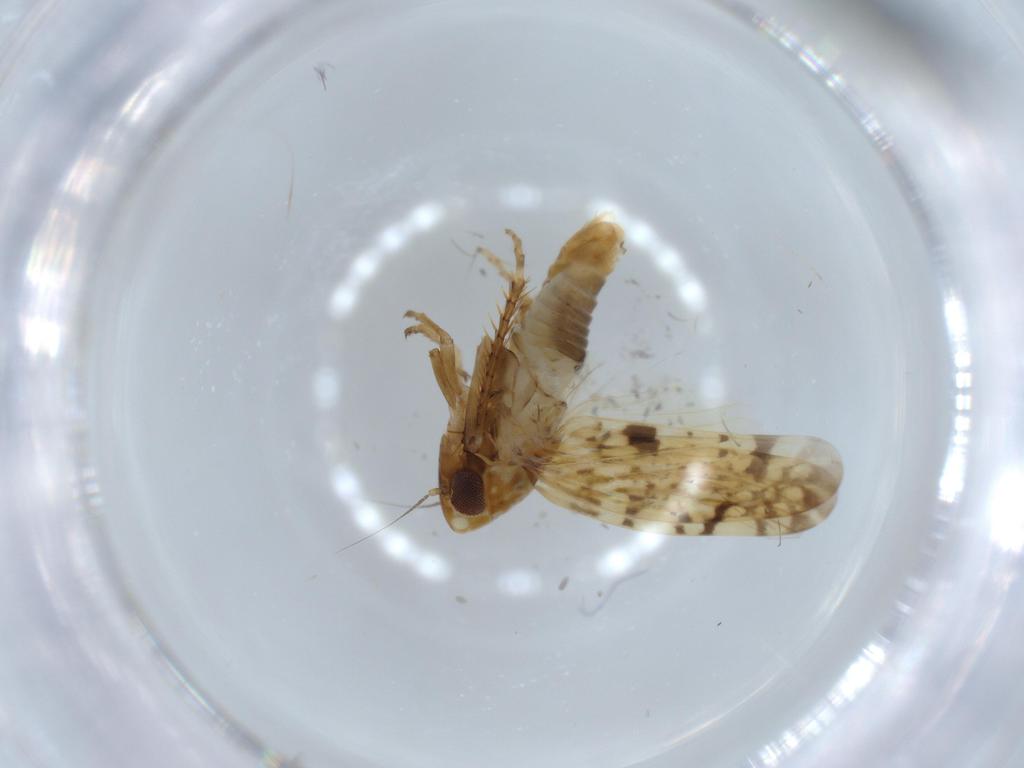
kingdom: Animalia
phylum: Arthropoda
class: Insecta
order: Hemiptera
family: Cicadellidae
